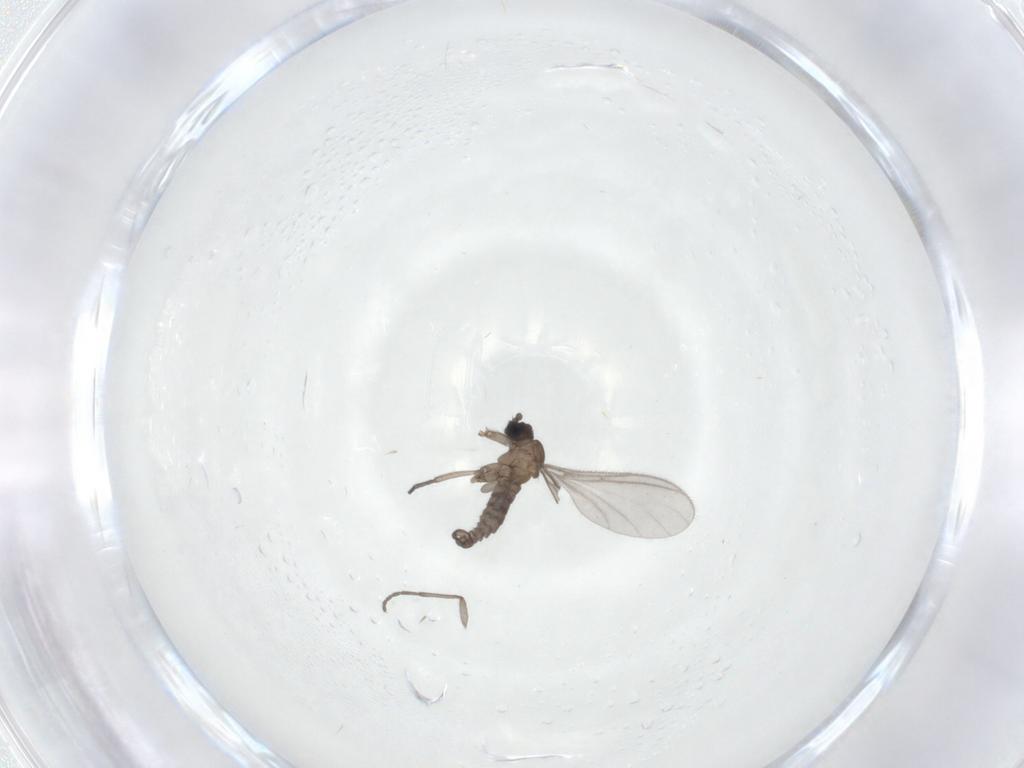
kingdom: Animalia
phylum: Arthropoda
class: Insecta
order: Diptera
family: Sciaridae
